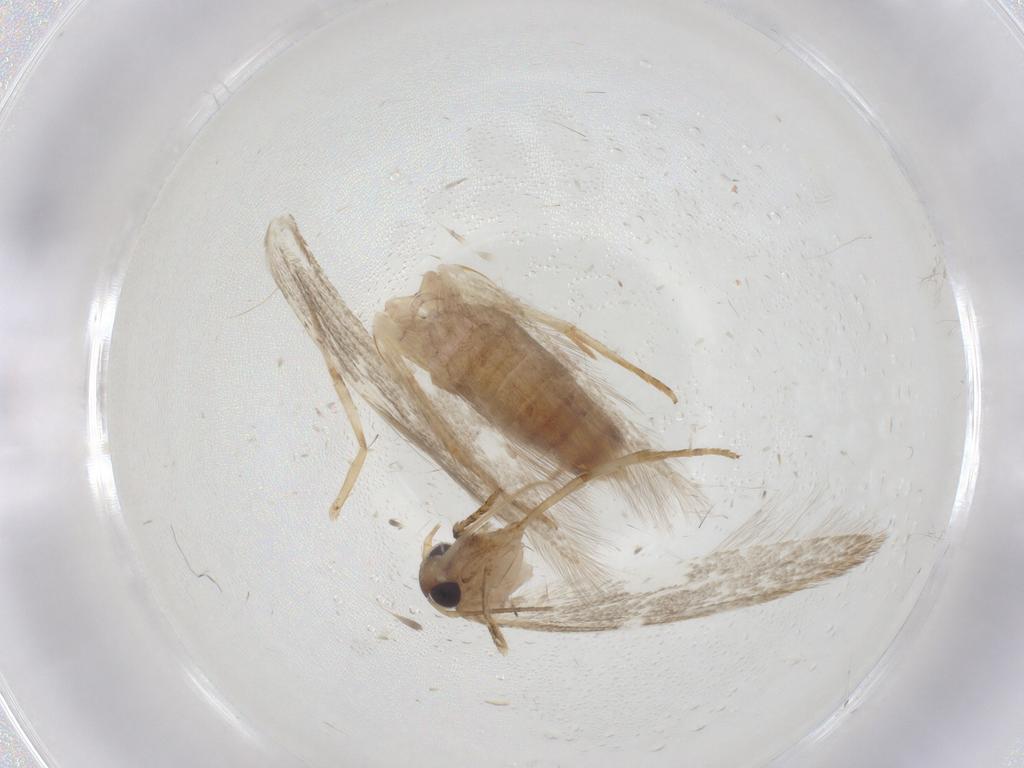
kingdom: Animalia
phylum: Arthropoda
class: Insecta
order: Lepidoptera
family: Blastobasidae
